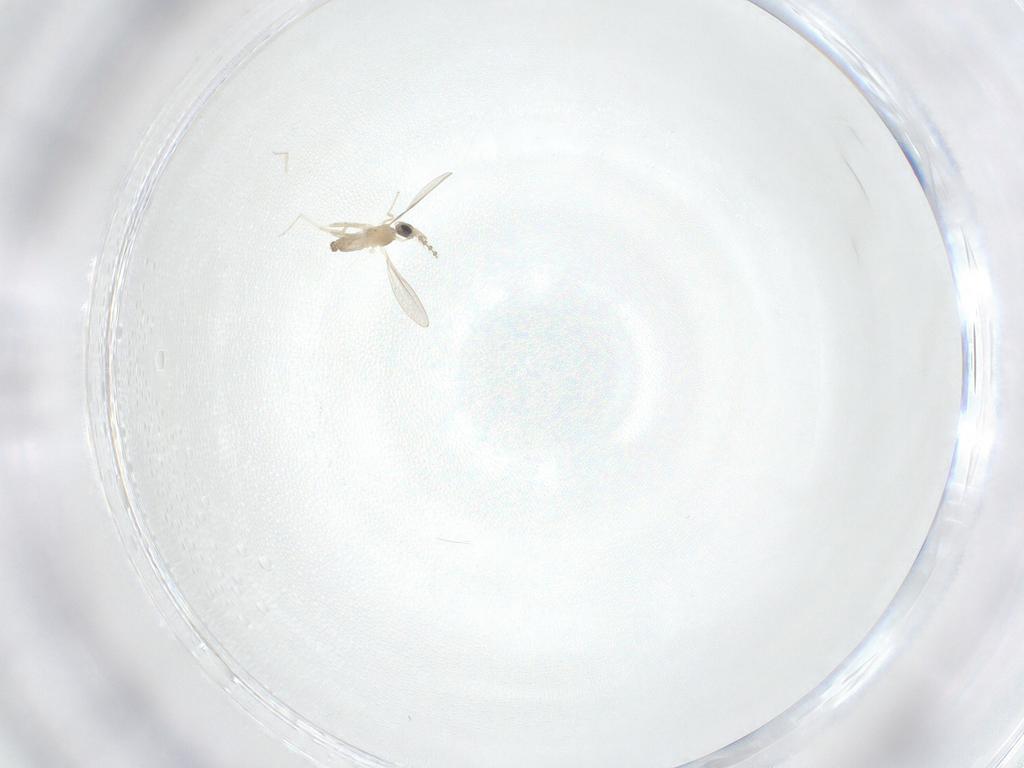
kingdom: Animalia
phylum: Arthropoda
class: Insecta
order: Diptera
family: Cecidomyiidae
